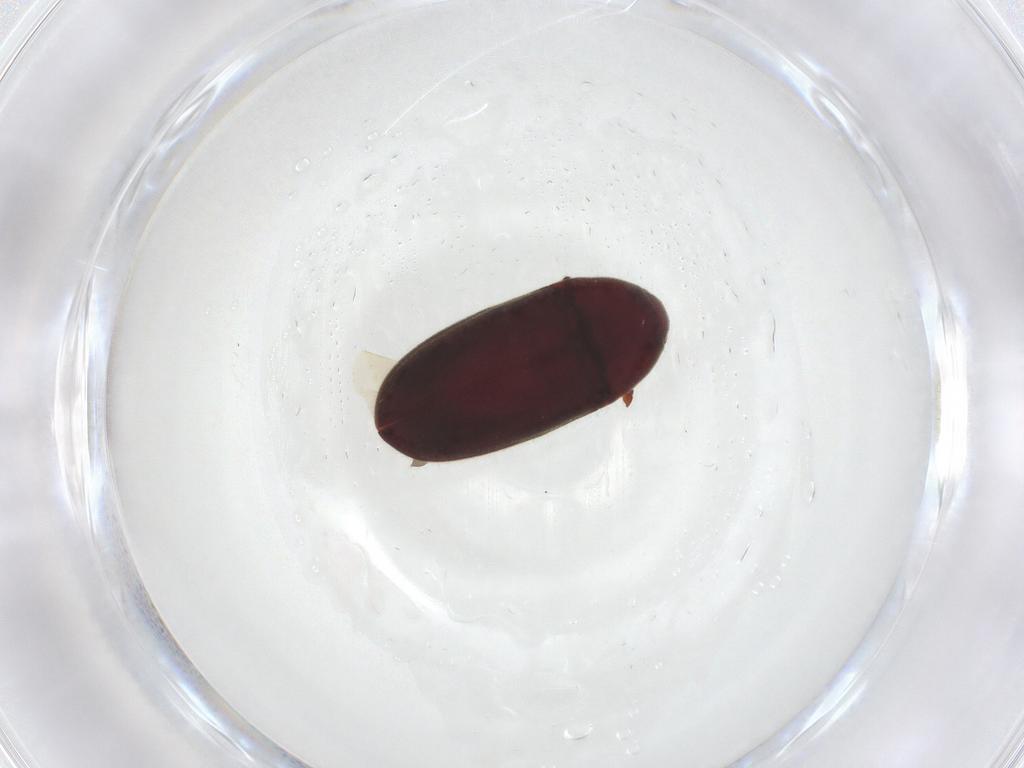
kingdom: Animalia
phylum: Arthropoda
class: Insecta
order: Coleoptera
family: Throscidae
